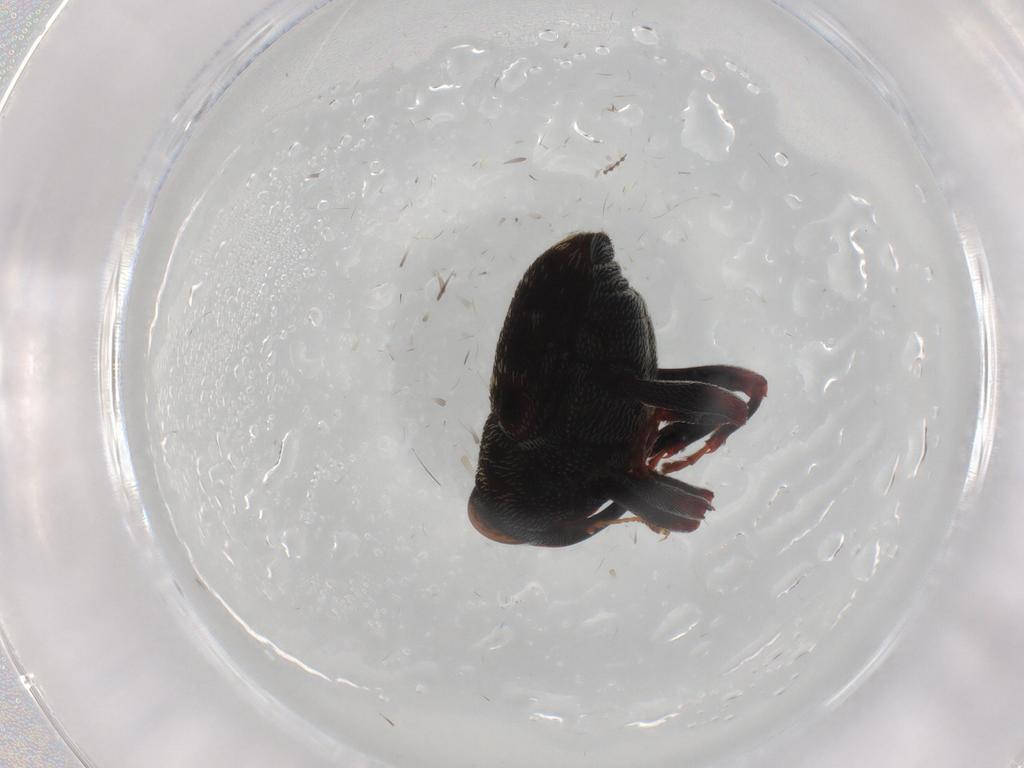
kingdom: Animalia
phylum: Arthropoda
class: Insecta
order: Coleoptera
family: Curculionidae
